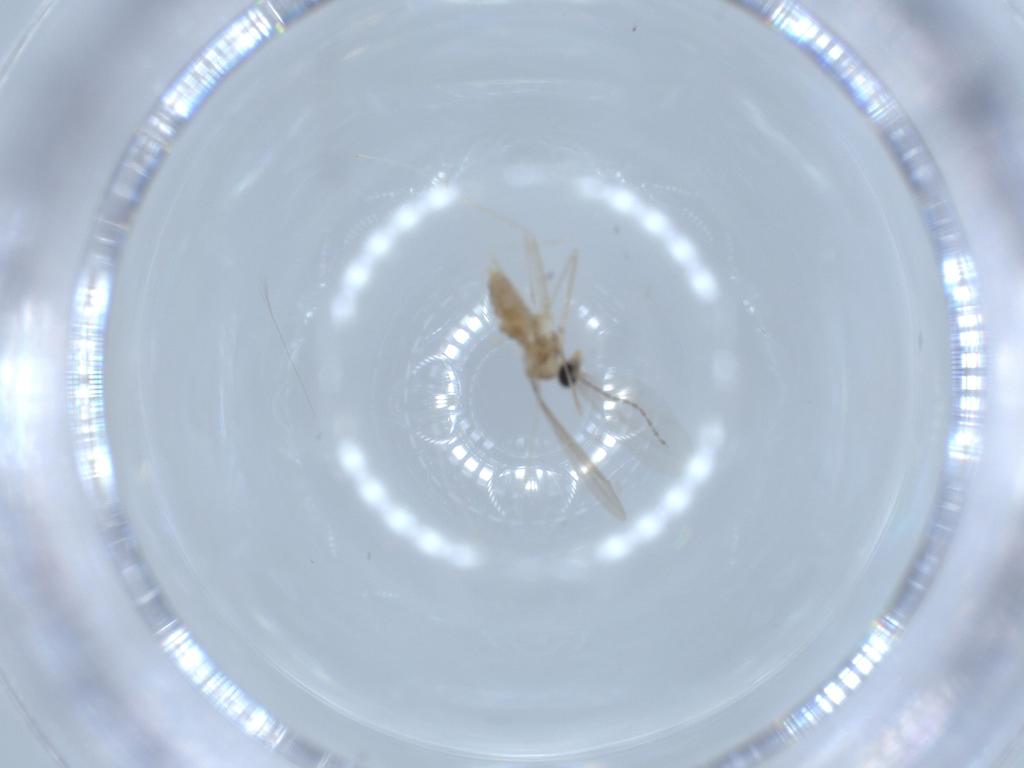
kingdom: Animalia
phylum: Arthropoda
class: Insecta
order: Diptera
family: Cecidomyiidae
